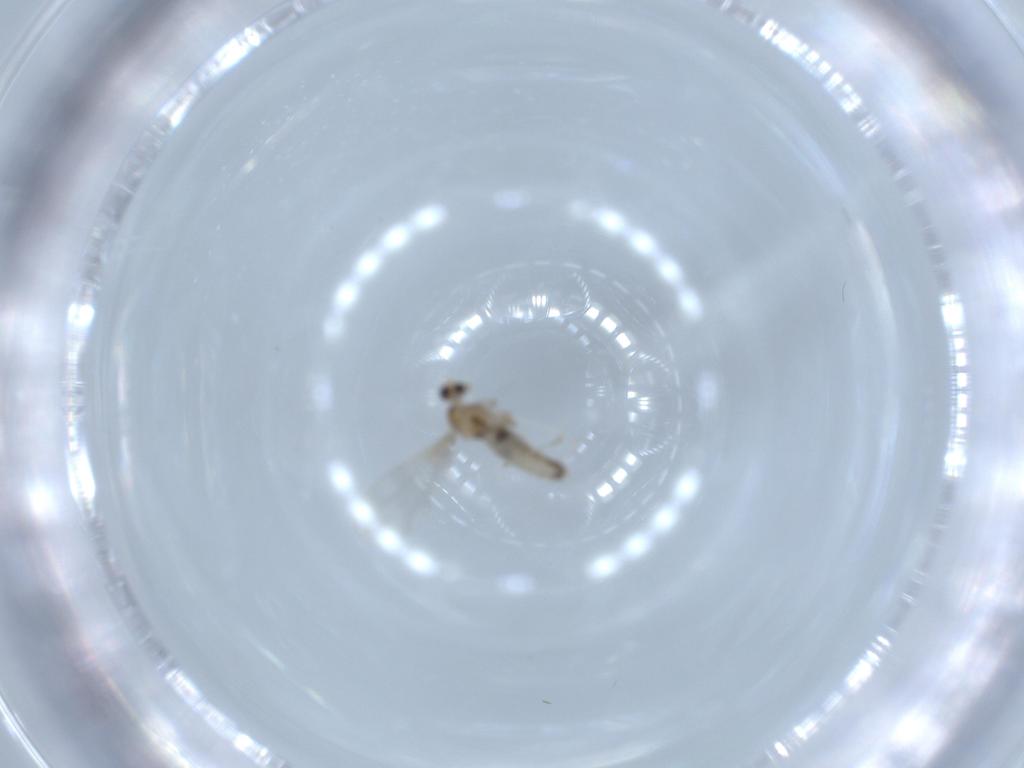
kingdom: Animalia
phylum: Arthropoda
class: Insecta
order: Diptera
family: Cecidomyiidae
